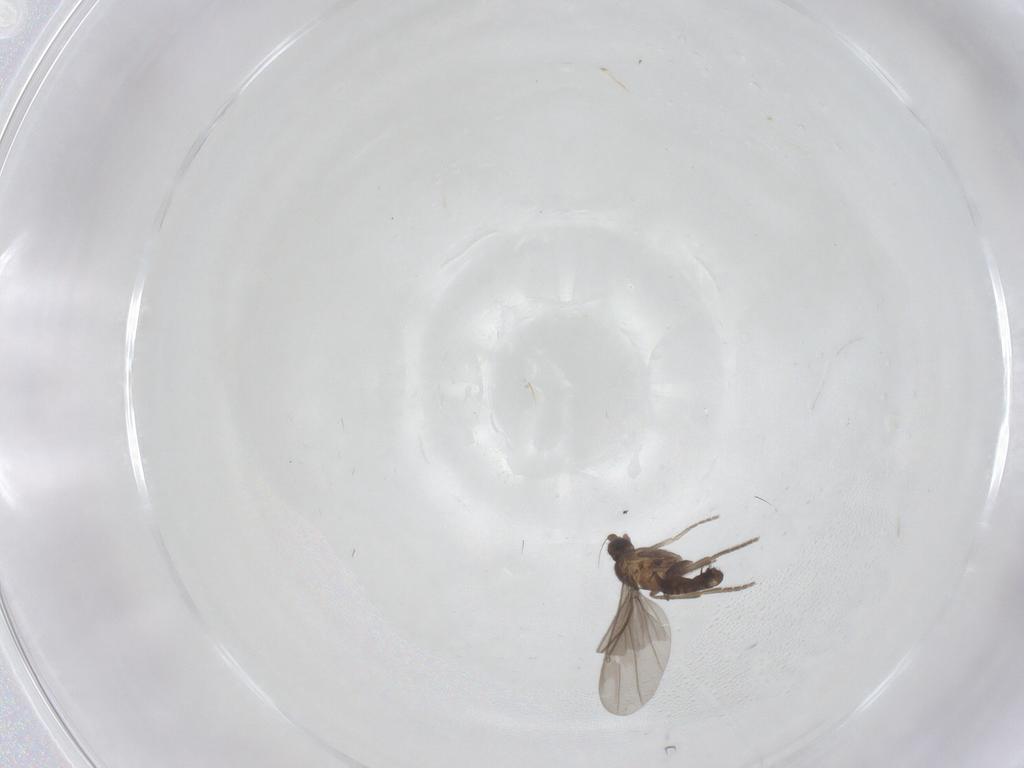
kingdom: Animalia
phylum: Arthropoda
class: Insecta
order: Diptera
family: Phoridae
